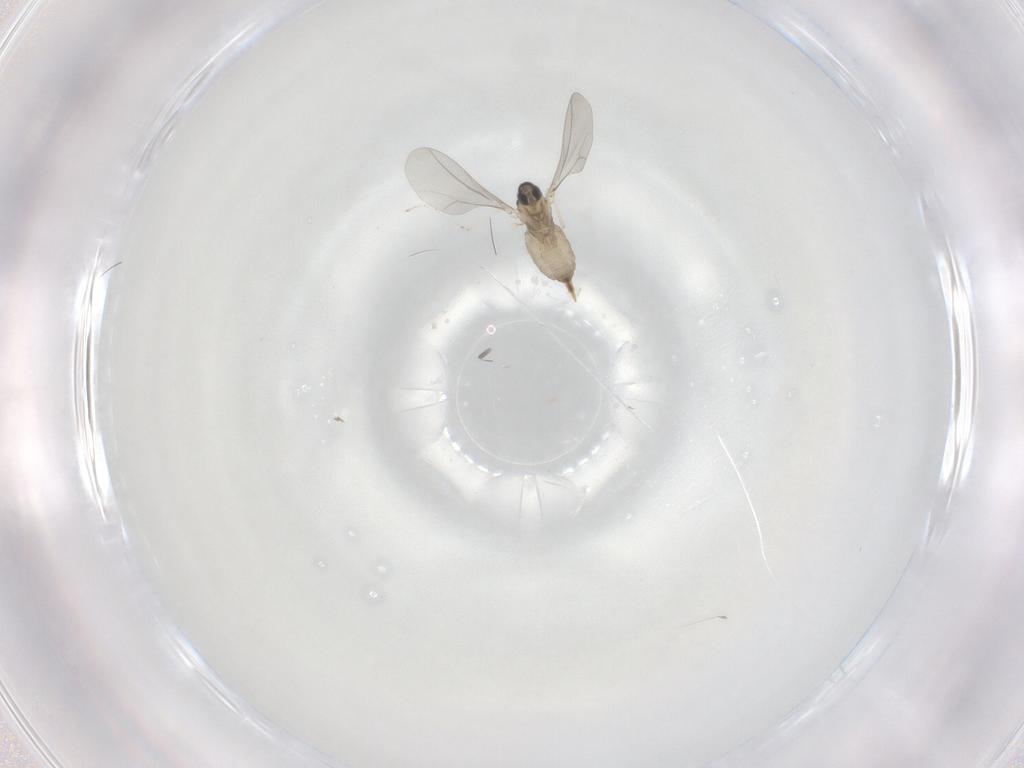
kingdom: Animalia
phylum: Arthropoda
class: Insecta
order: Diptera
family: Cecidomyiidae
